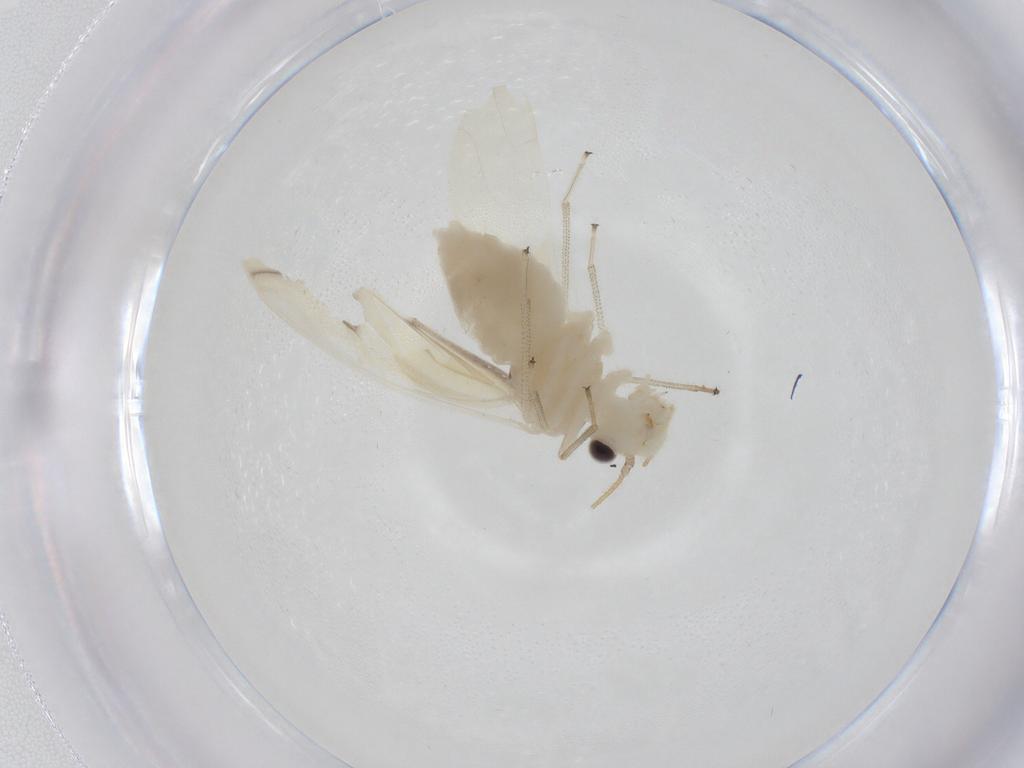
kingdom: Animalia
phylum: Arthropoda
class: Insecta
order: Psocodea
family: Caeciliusidae
